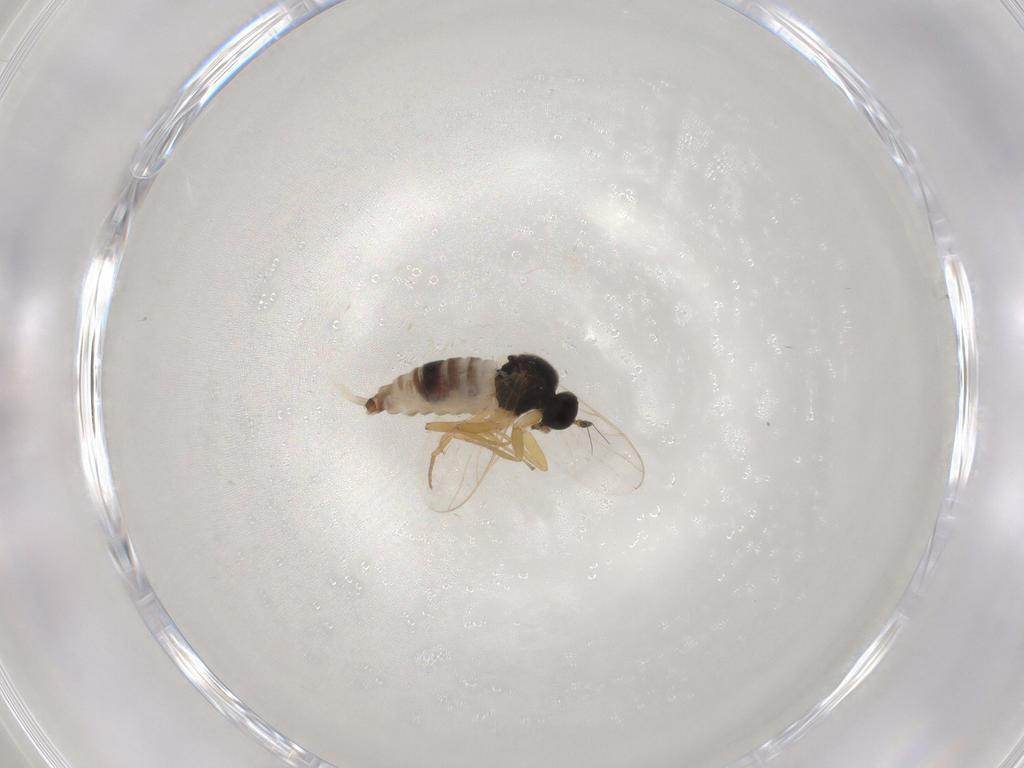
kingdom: Animalia
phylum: Arthropoda
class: Insecta
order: Diptera
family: Hybotidae
